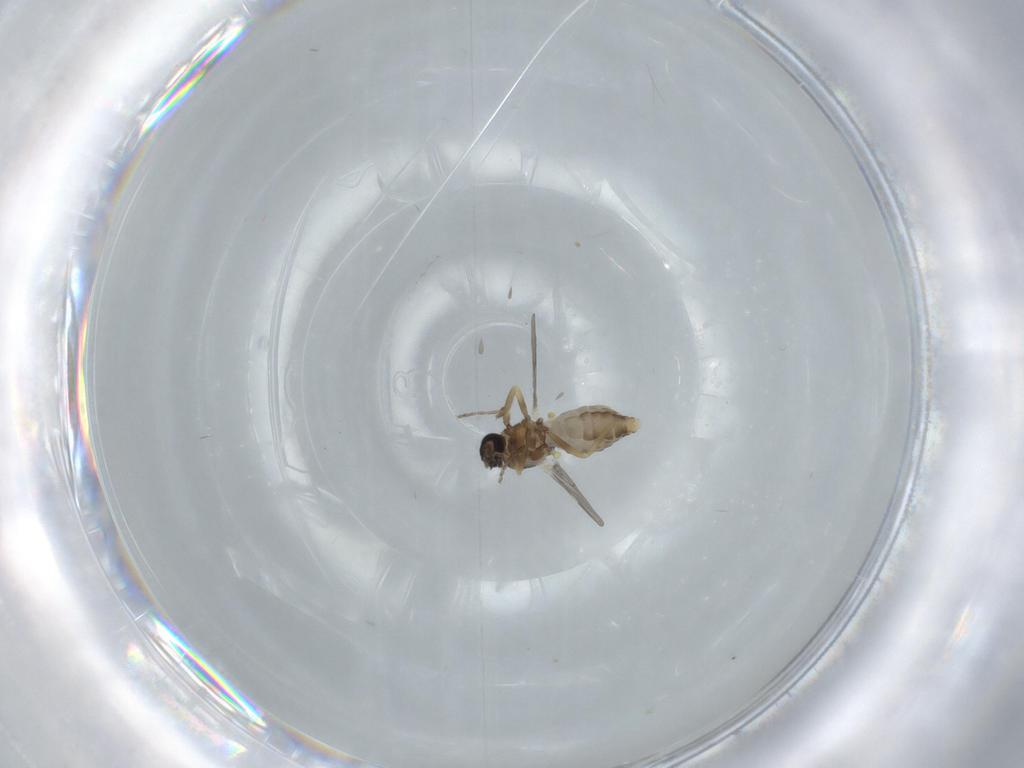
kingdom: Animalia
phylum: Arthropoda
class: Insecta
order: Diptera
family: Ceratopogonidae
